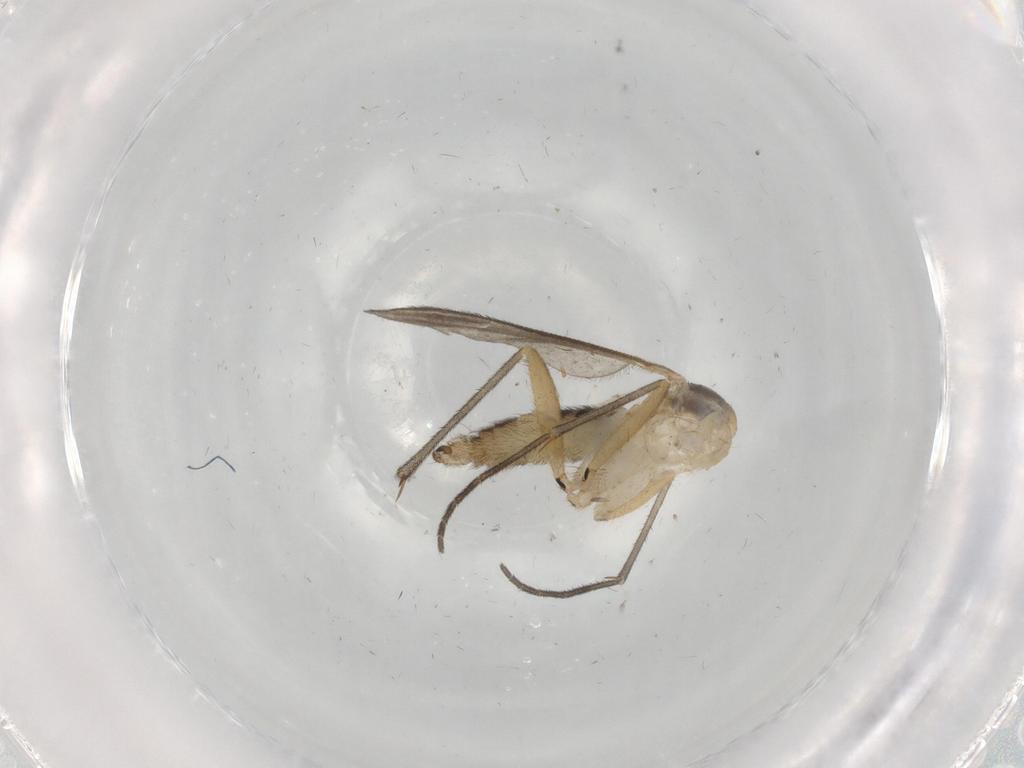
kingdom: Animalia
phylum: Arthropoda
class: Insecta
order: Diptera
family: Sciaridae
